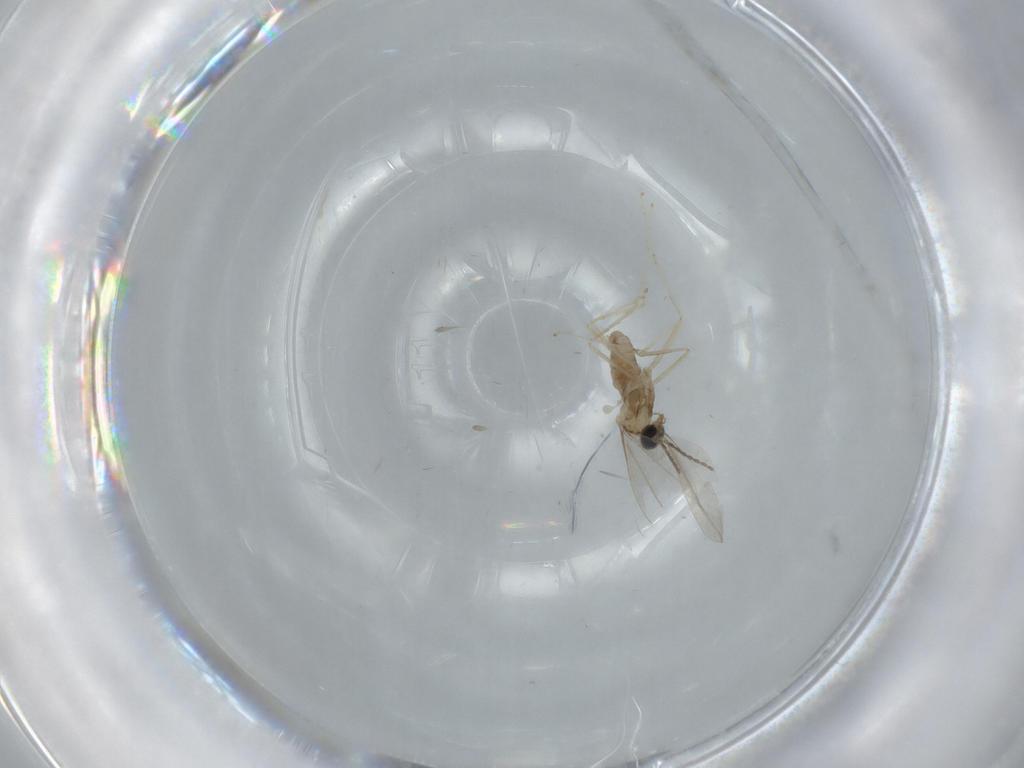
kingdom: Animalia
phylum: Arthropoda
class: Insecta
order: Diptera
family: Cecidomyiidae
